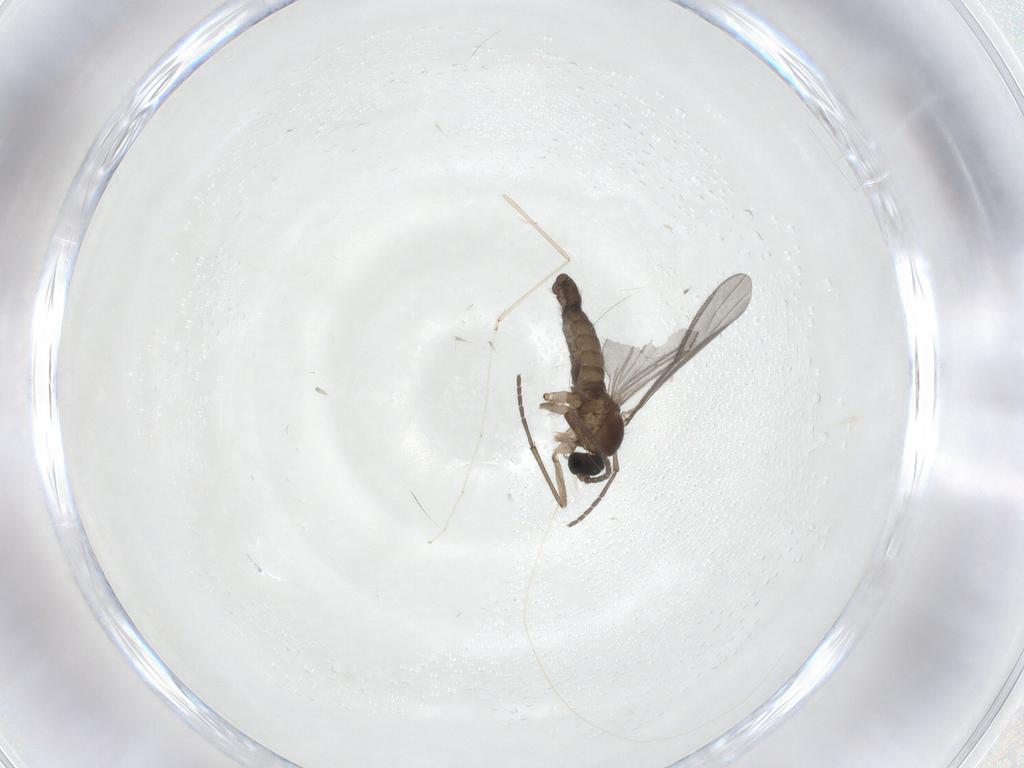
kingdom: Animalia
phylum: Arthropoda
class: Insecta
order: Diptera
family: Sciaridae
